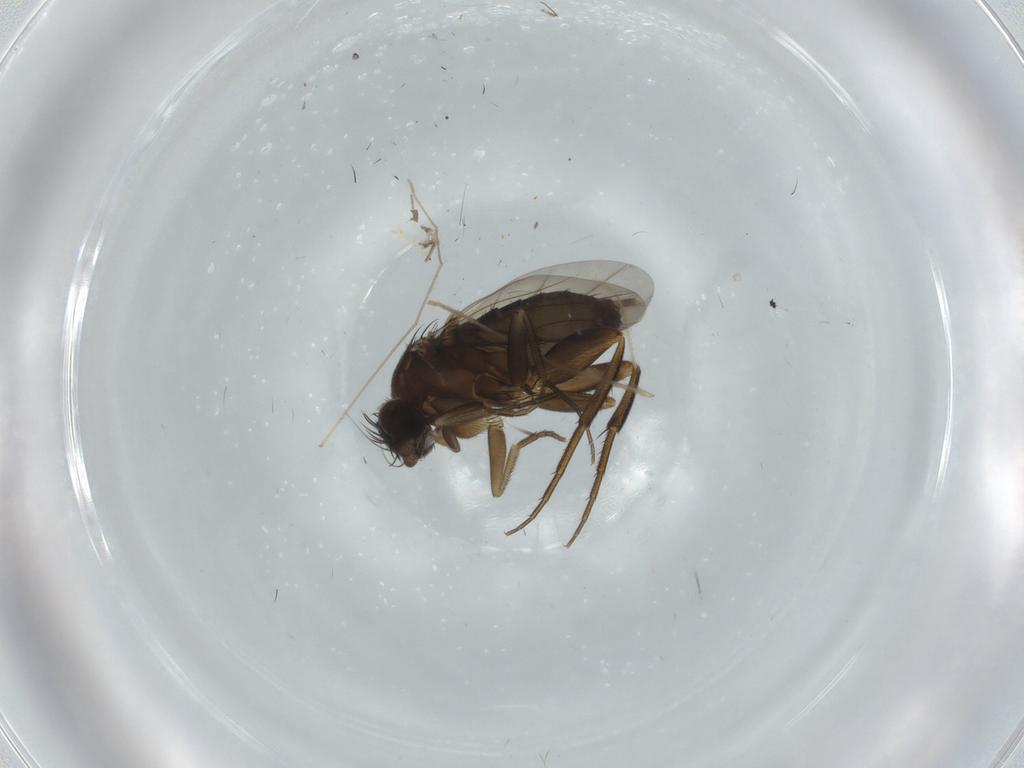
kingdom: Animalia
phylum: Arthropoda
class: Insecta
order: Diptera
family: Phoridae
